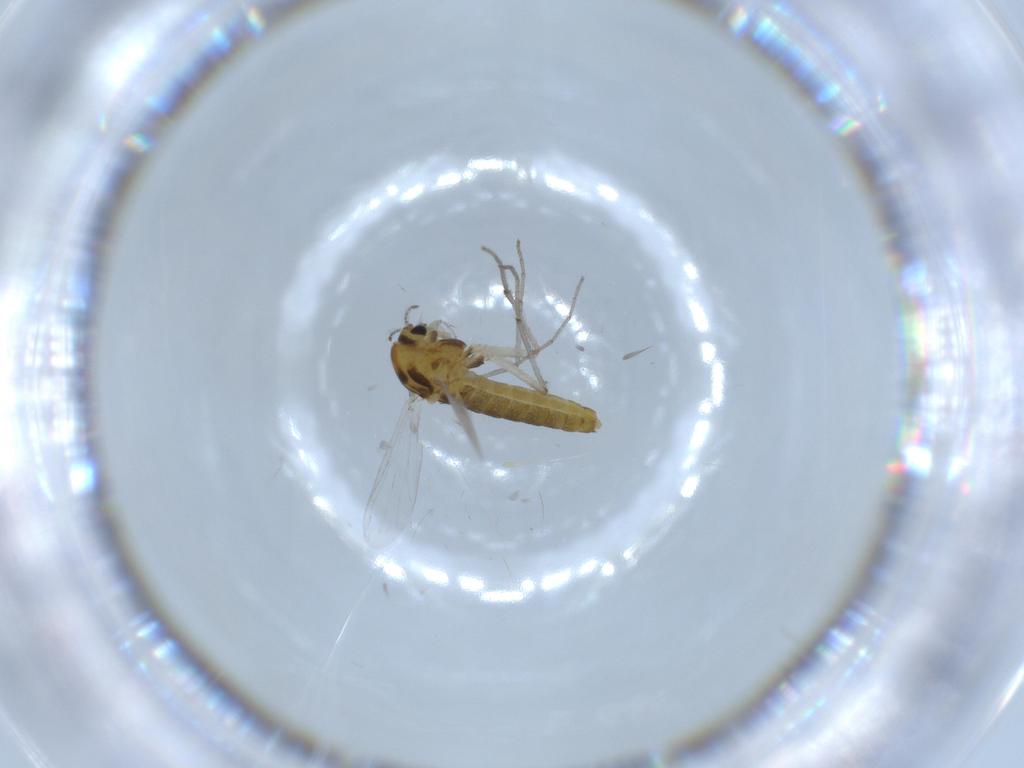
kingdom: Animalia
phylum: Arthropoda
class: Insecta
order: Diptera
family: Chironomidae
